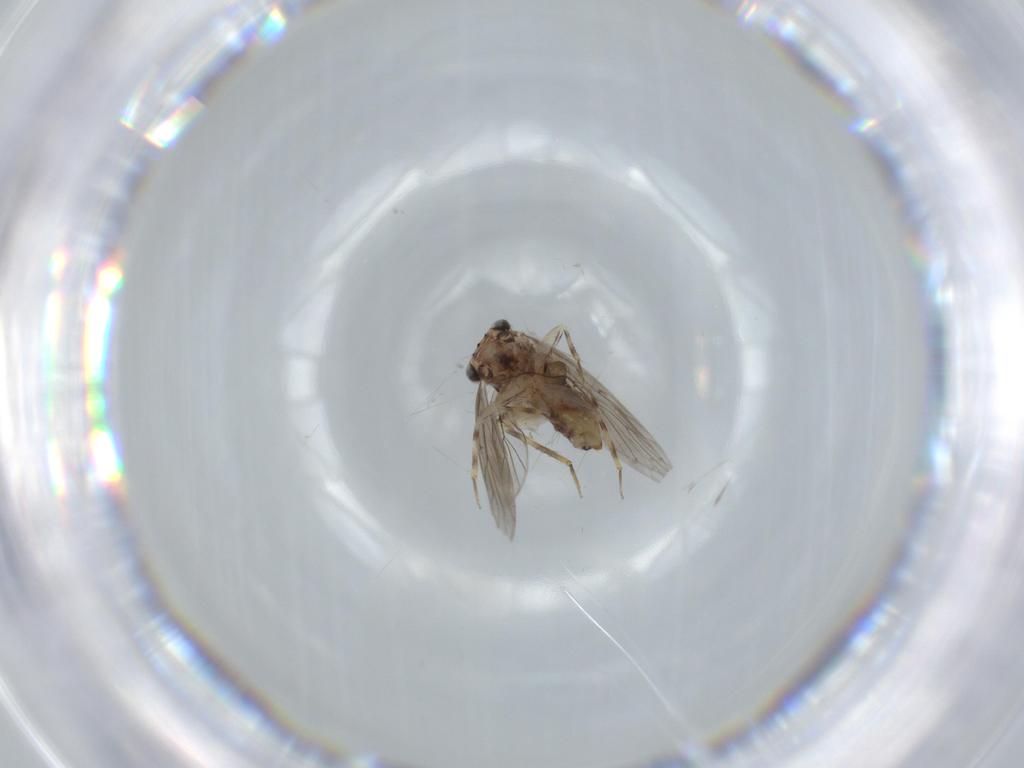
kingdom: Animalia
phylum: Arthropoda
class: Insecta
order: Psocodea
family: Lepidopsocidae
